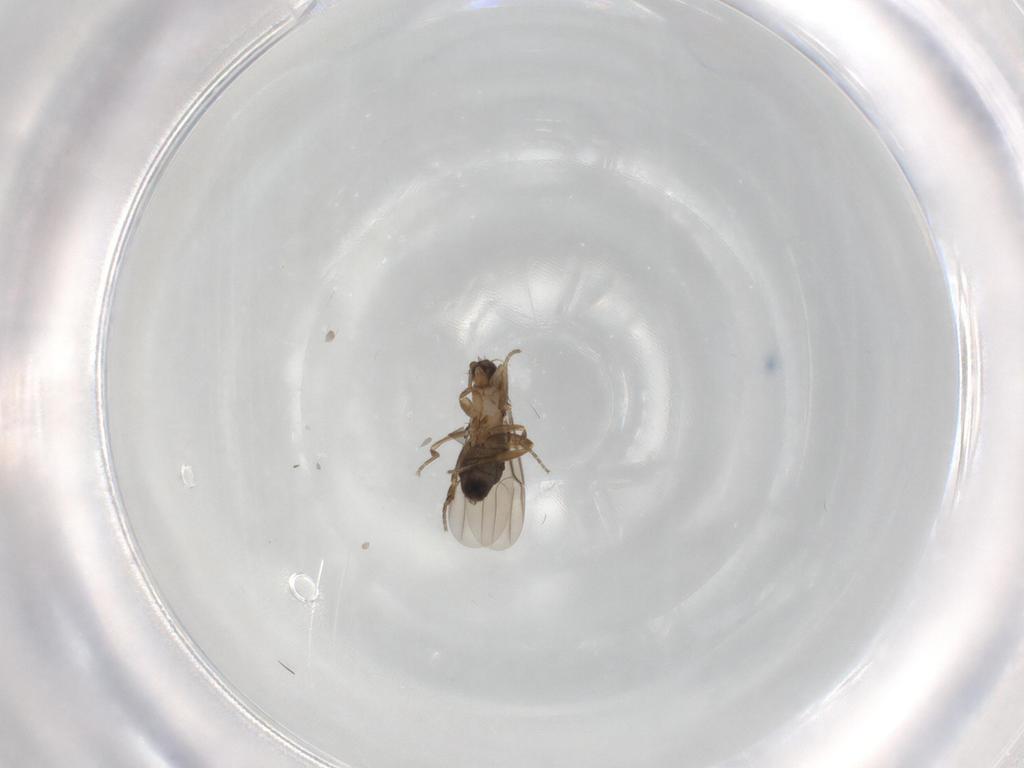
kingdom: Animalia
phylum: Arthropoda
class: Insecta
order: Diptera
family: Phoridae
